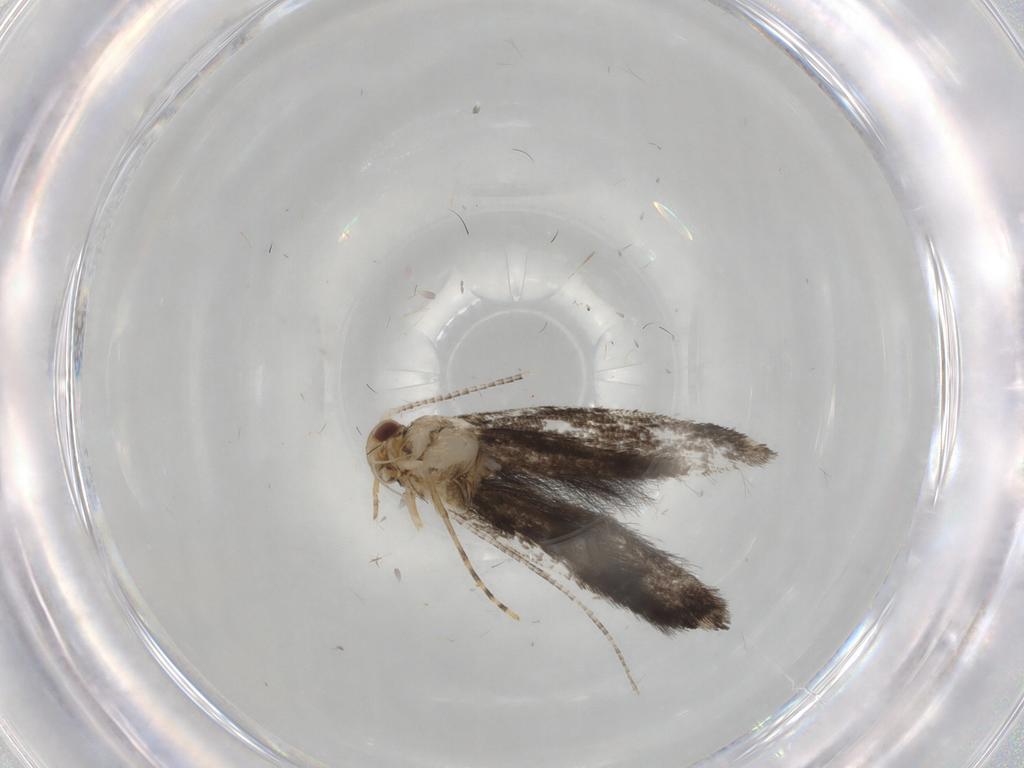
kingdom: Animalia
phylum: Arthropoda
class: Insecta
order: Lepidoptera
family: Gracillariidae
